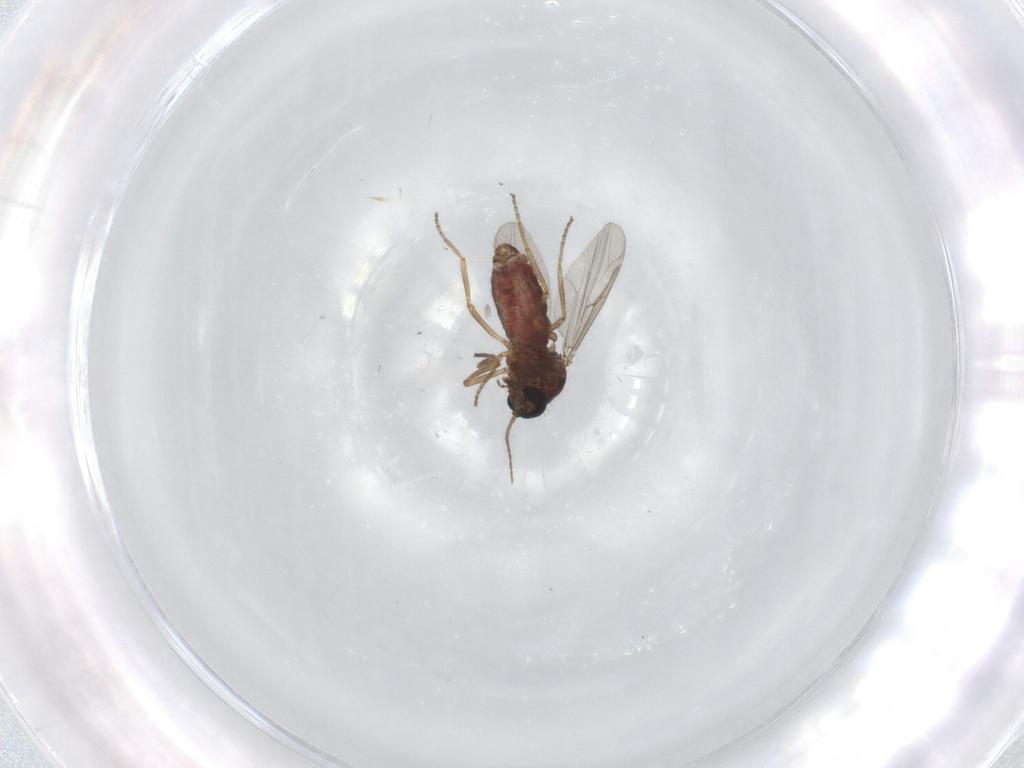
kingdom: Animalia
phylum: Arthropoda
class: Insecta
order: Diptera
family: Ceratopogonidae
